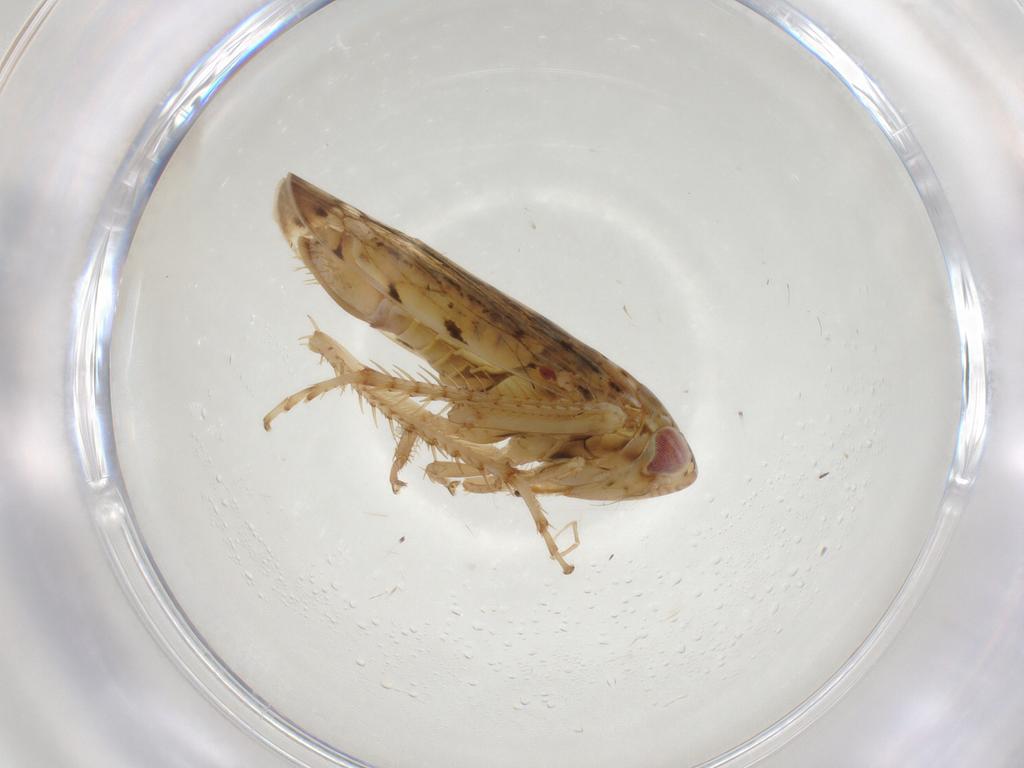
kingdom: Animalia
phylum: Arthropoda
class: Insecta
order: Hemiptera
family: Cicadellidae
